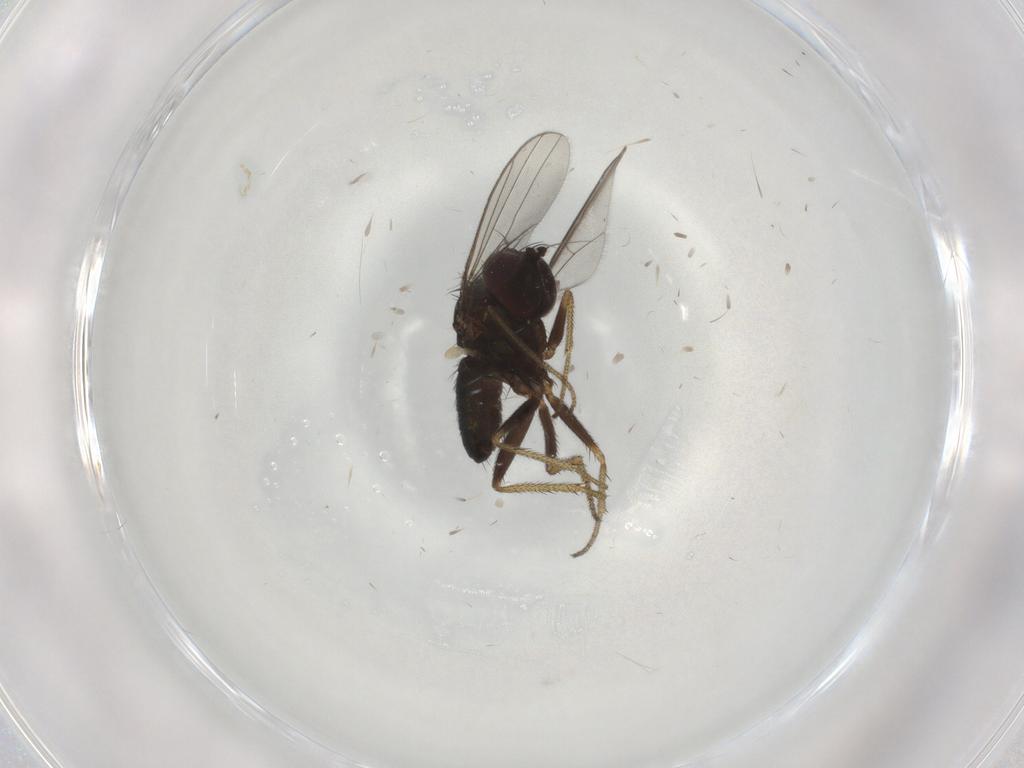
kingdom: Animalia
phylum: Arthropoda
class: Insecta
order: Diptera
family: Dolichopodidae
